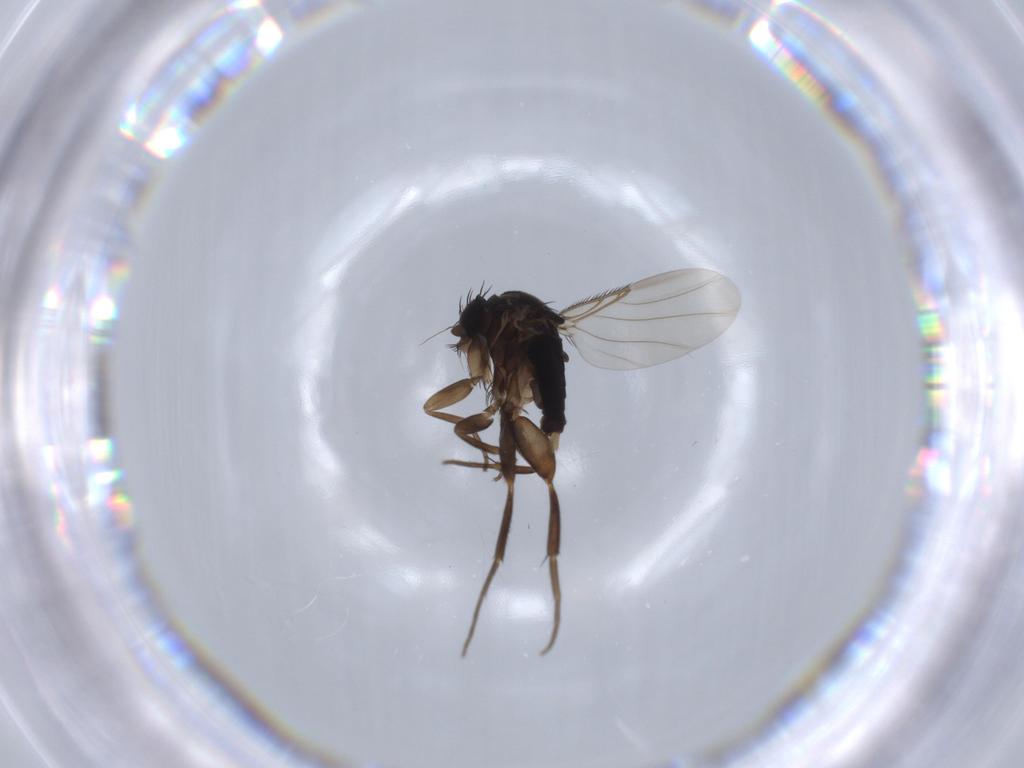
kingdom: Animalia
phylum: Arthropoda
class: Insecta
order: Diptera
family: Phoridae
